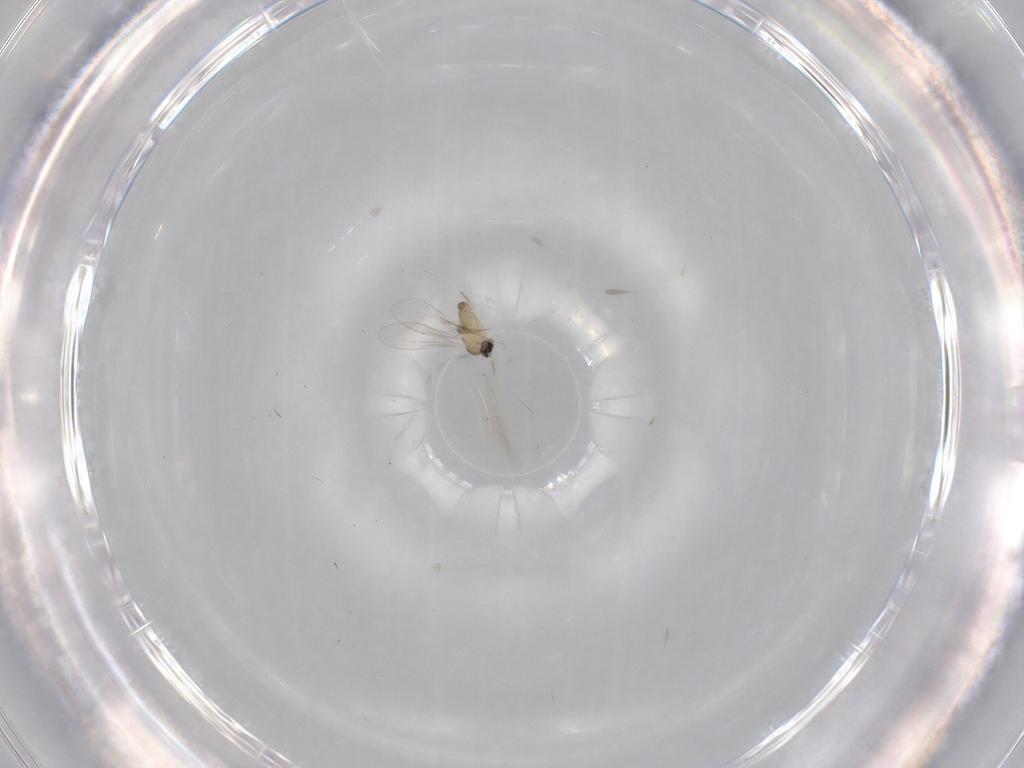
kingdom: Animalia
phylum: Arthropoda
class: Insecta
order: Diptera
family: Cecidomyiidae
